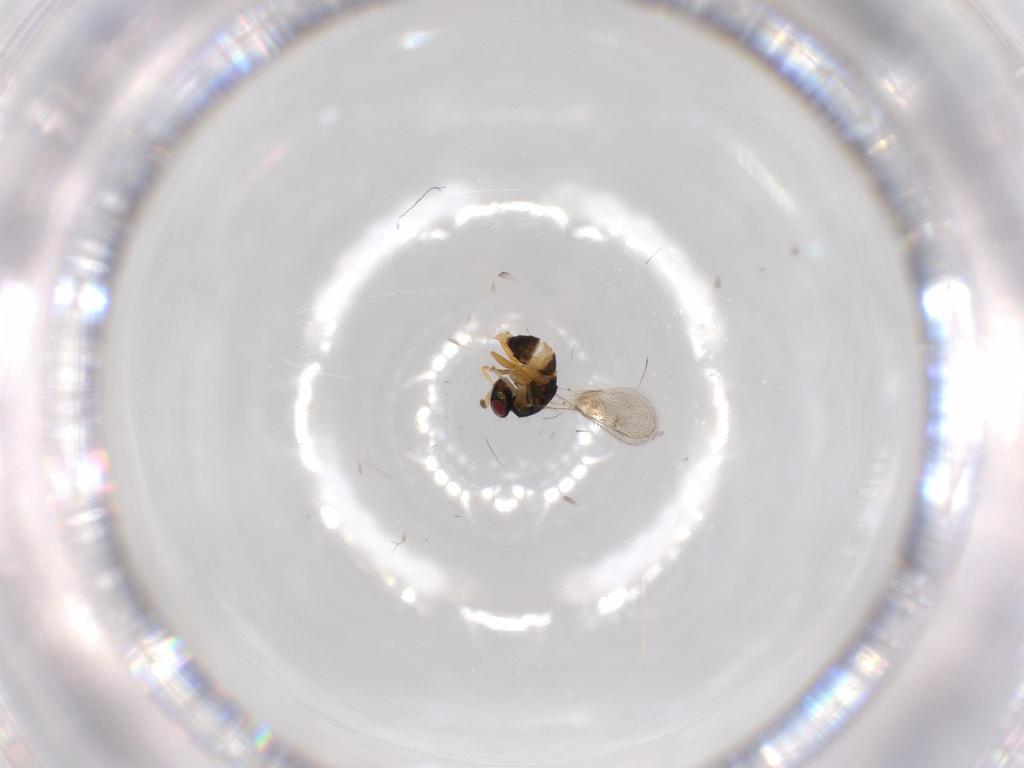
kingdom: Animalia
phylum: Arthropoda
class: Insecta
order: Hymenoptera
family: Torymidae
